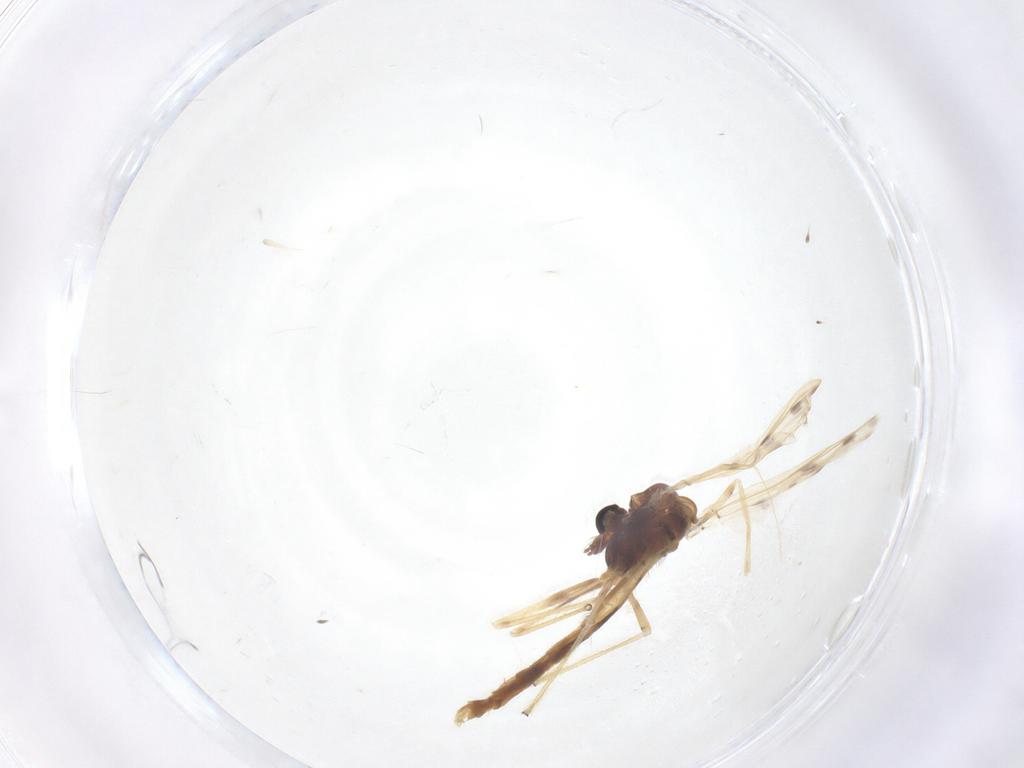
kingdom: Animalia
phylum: Arthropoda
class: Insecta
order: Diptera
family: Chironomidae
